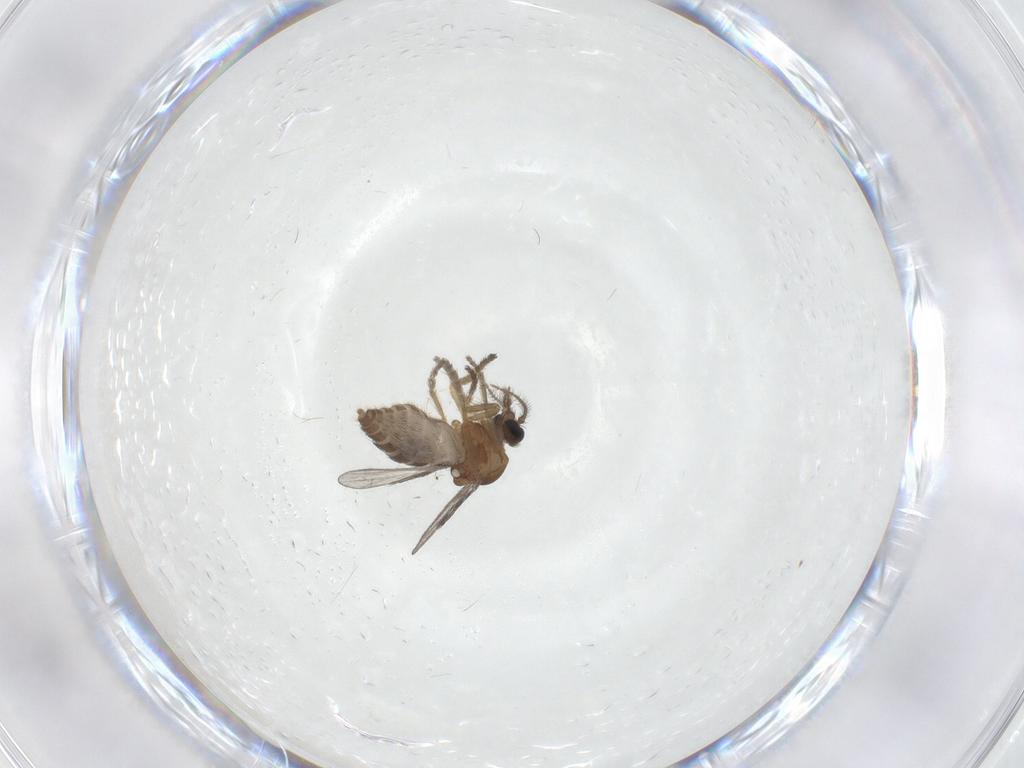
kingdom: Animalia
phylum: Arthropoda
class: Insecta
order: Diptera
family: Ceratopogonidae
